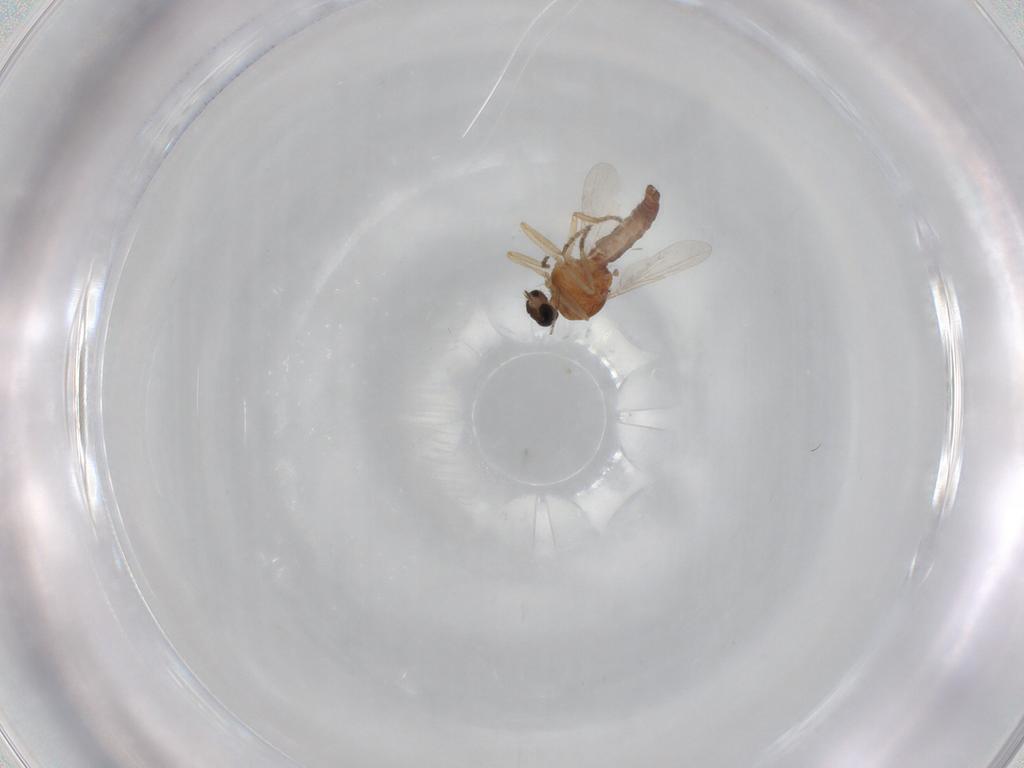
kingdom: Animalia
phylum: Arthropoda
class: Insecta
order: Diptera
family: Ceratopogonidae
